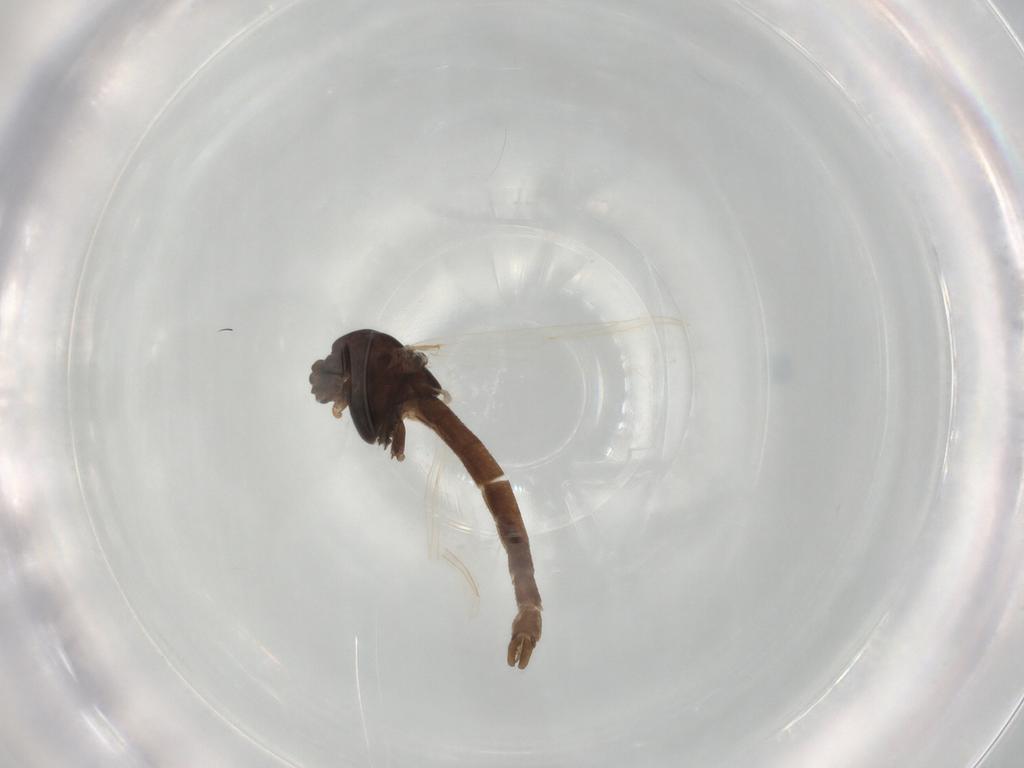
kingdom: Animalia
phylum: Arthropoda
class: Insecta
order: Diptera
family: Chironomidae
